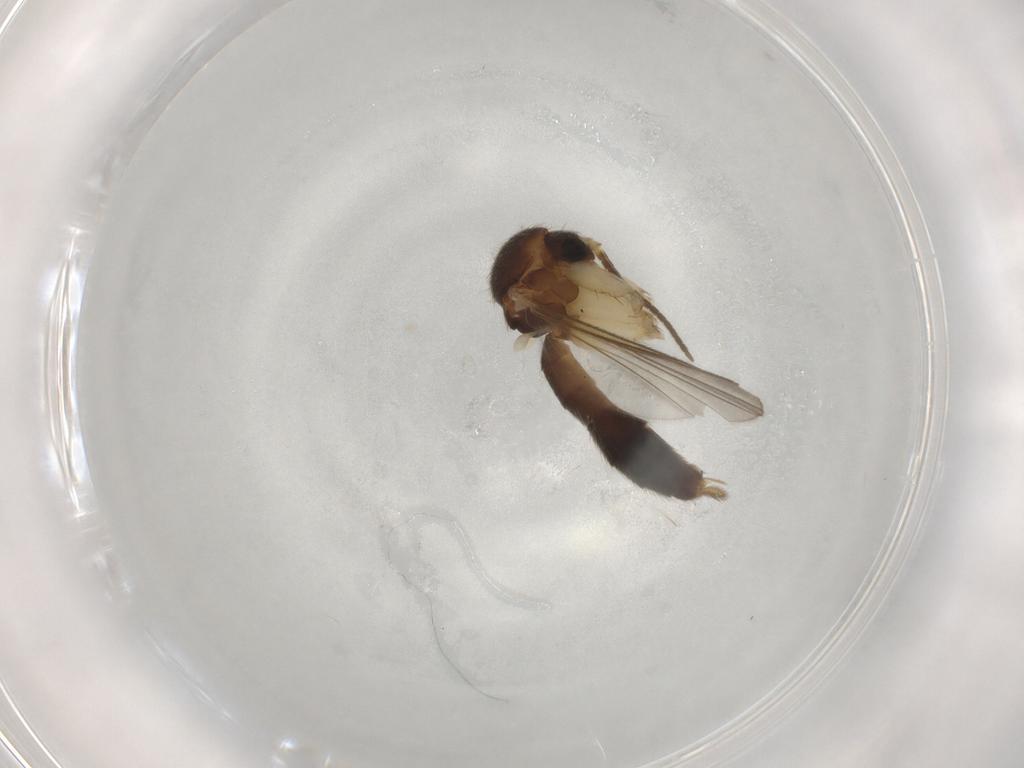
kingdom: Animalia
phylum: Arthropoda
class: Insecta
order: Diptera
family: Mycetophilidae
